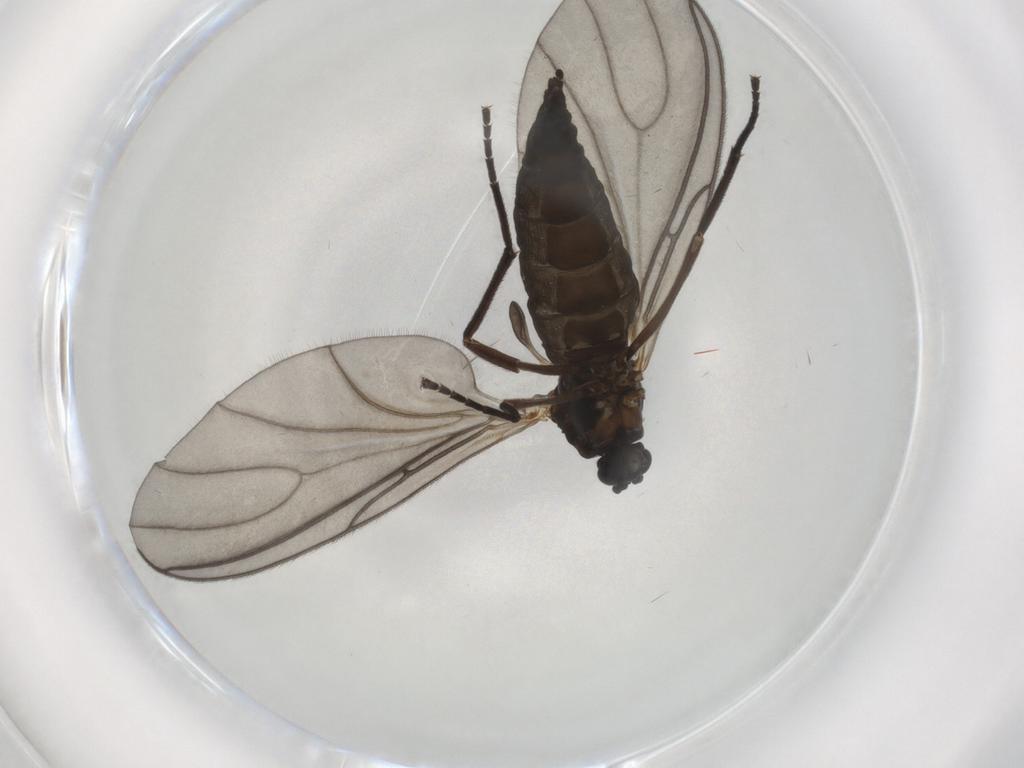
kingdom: Animalia
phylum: Arthropoda
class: Insecta
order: Diptera
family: Sciaridae
